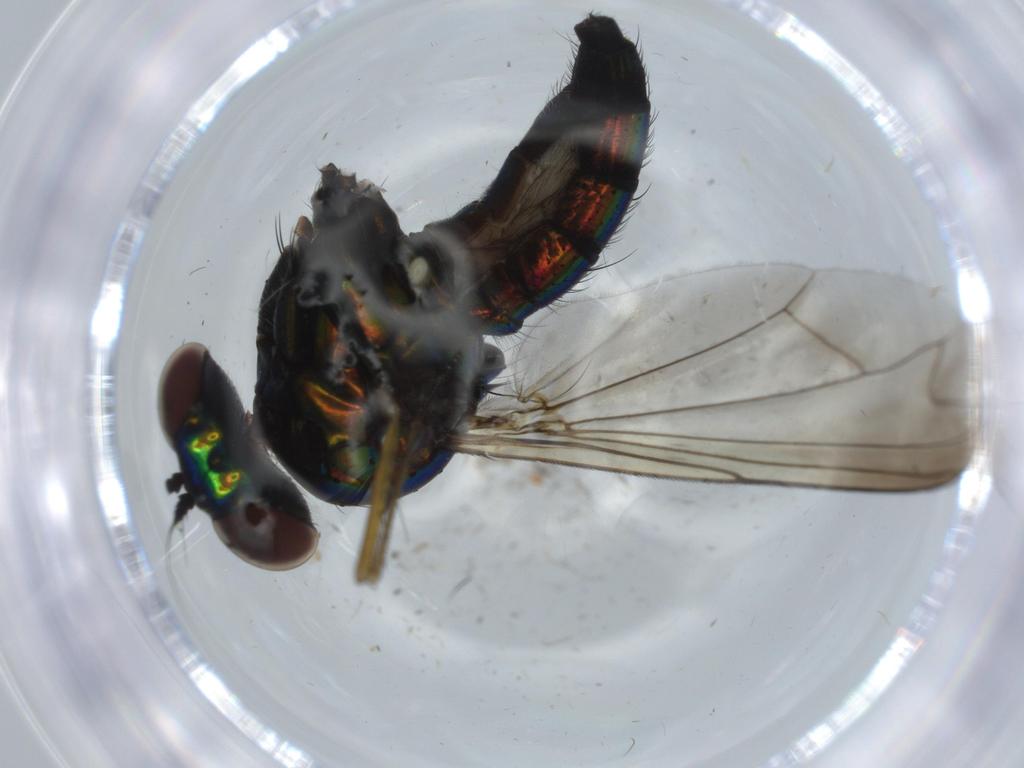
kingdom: Animalia
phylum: Arthropoda
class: Insecta
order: Diptera
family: Dolichopodidae
